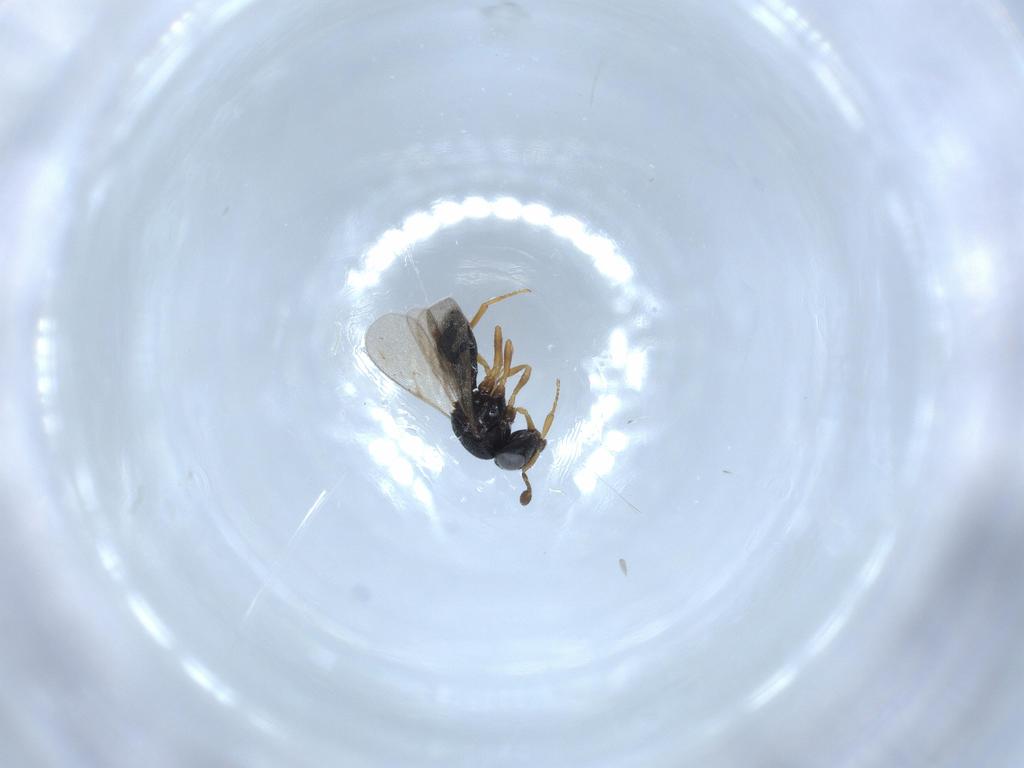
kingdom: Animalia
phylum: Arthropoda
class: Insecta
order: Hymenoptera
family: Scelionidae
